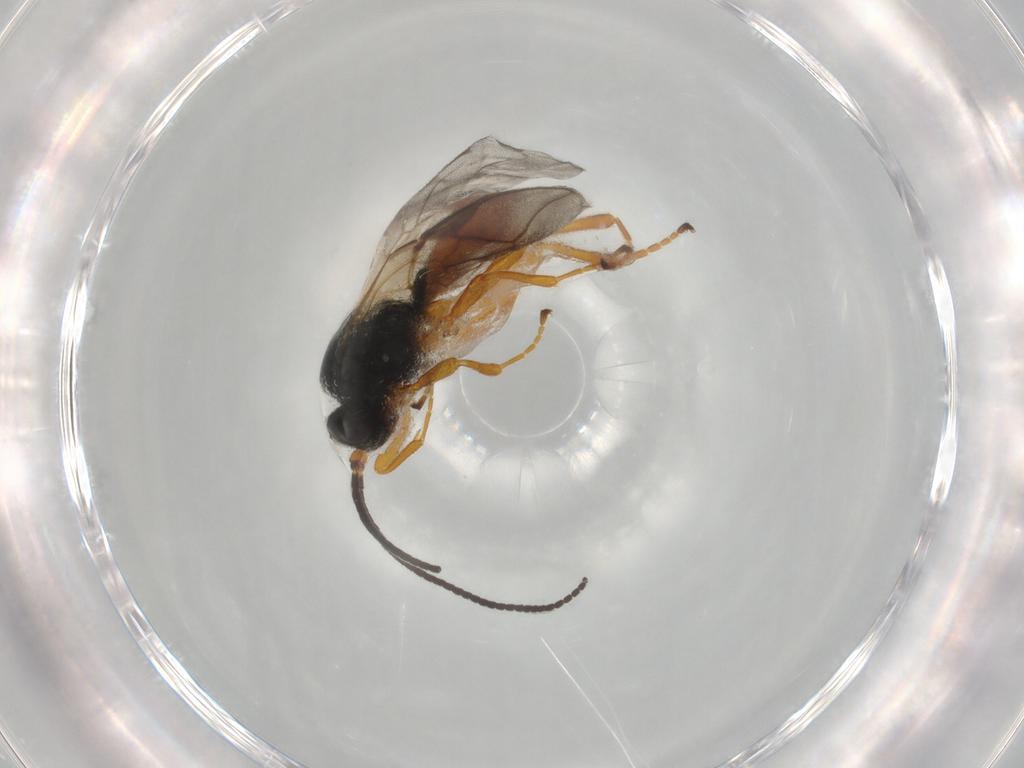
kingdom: Animalia
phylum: Arthropoda
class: Insecta
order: Hymenoptera
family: Braconidae
